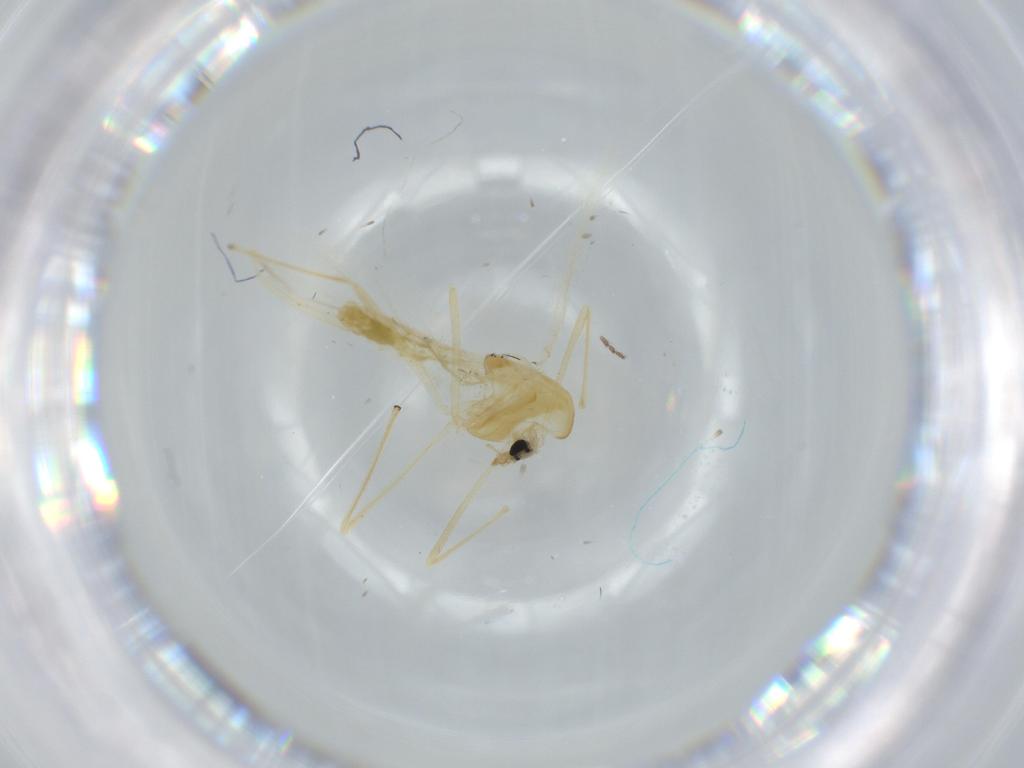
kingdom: Animalia
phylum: Arthropoda
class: Insecta
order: Diptera
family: Chironomidae
